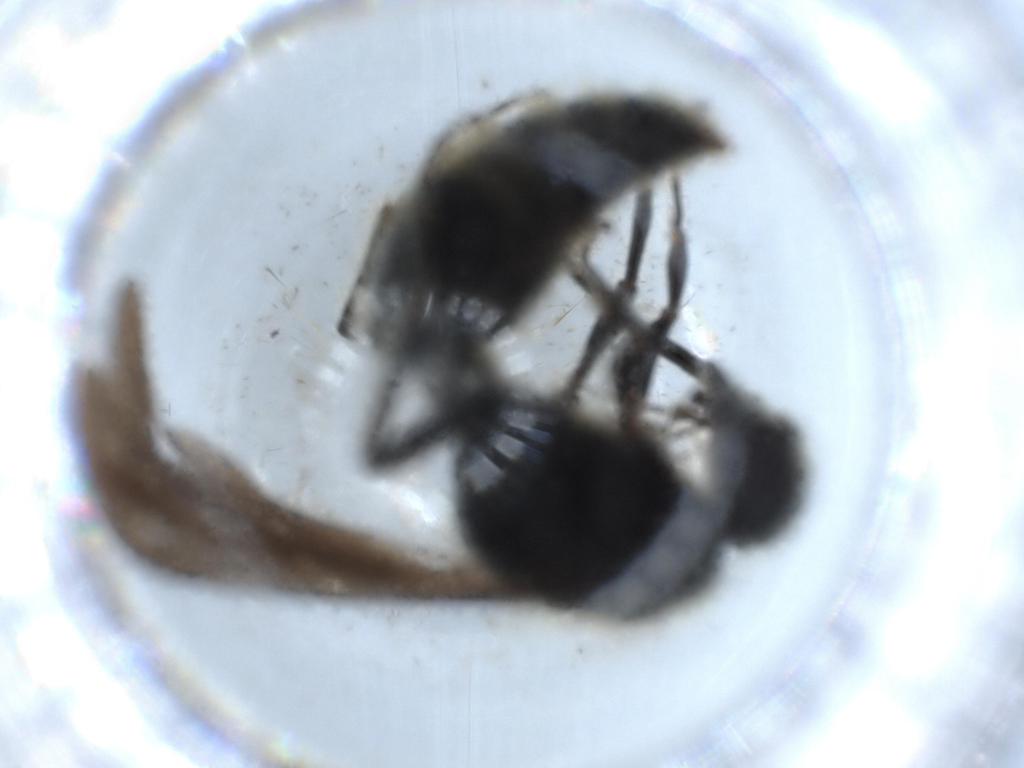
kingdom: Animalia
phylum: Arthropoda
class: Insecta
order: Hymenoptera
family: Mutillidae
